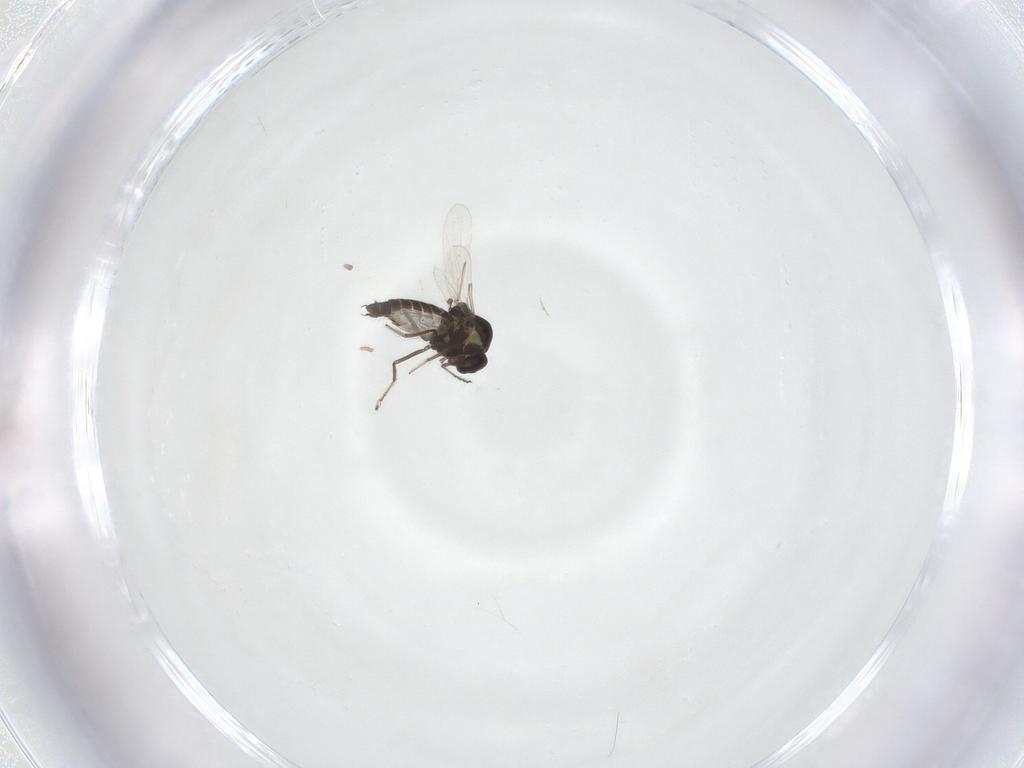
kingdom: Animalia
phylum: Arthropoda
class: Insecta
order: Diptera
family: Ceratopogonidae
